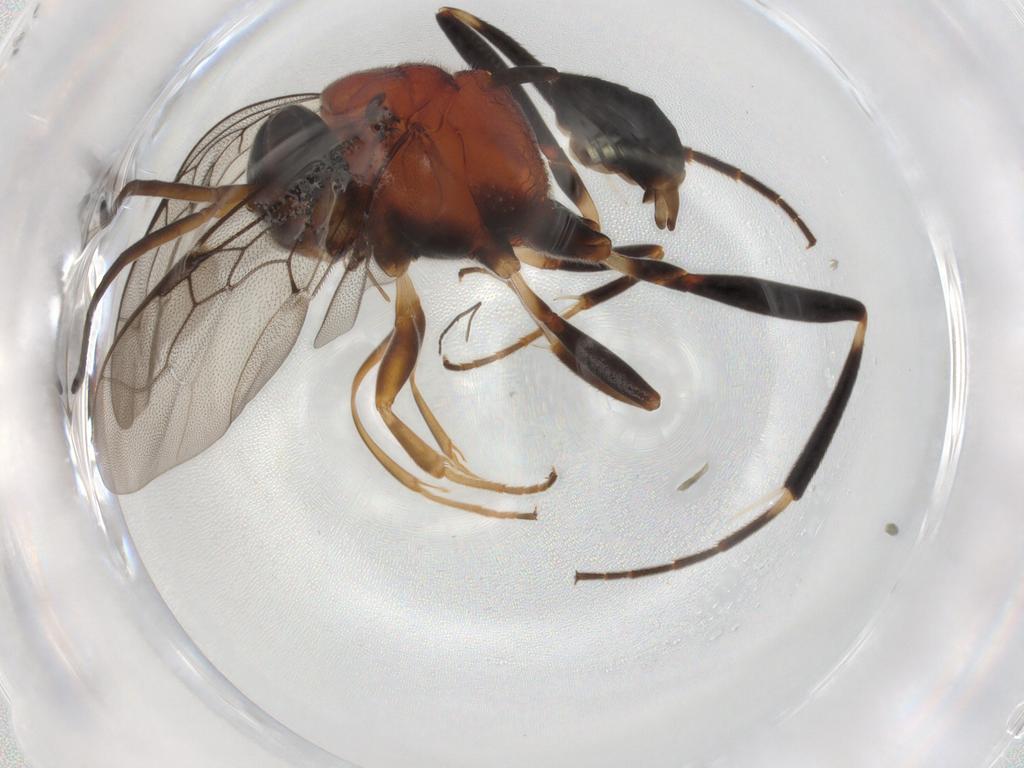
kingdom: Animalia
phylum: Arthropoda
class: Insecta
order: Hymenoptera
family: Evaniidae
